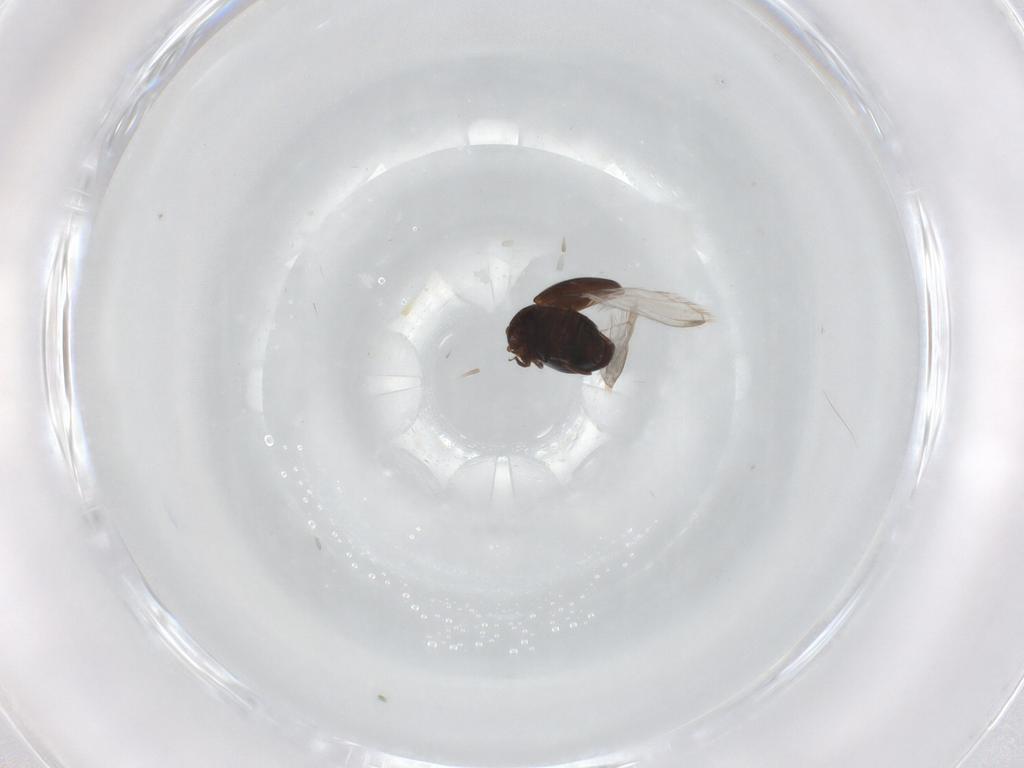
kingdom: Animalia
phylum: Arthropoda
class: Insecta
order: Coleoptera
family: Corylophidae
